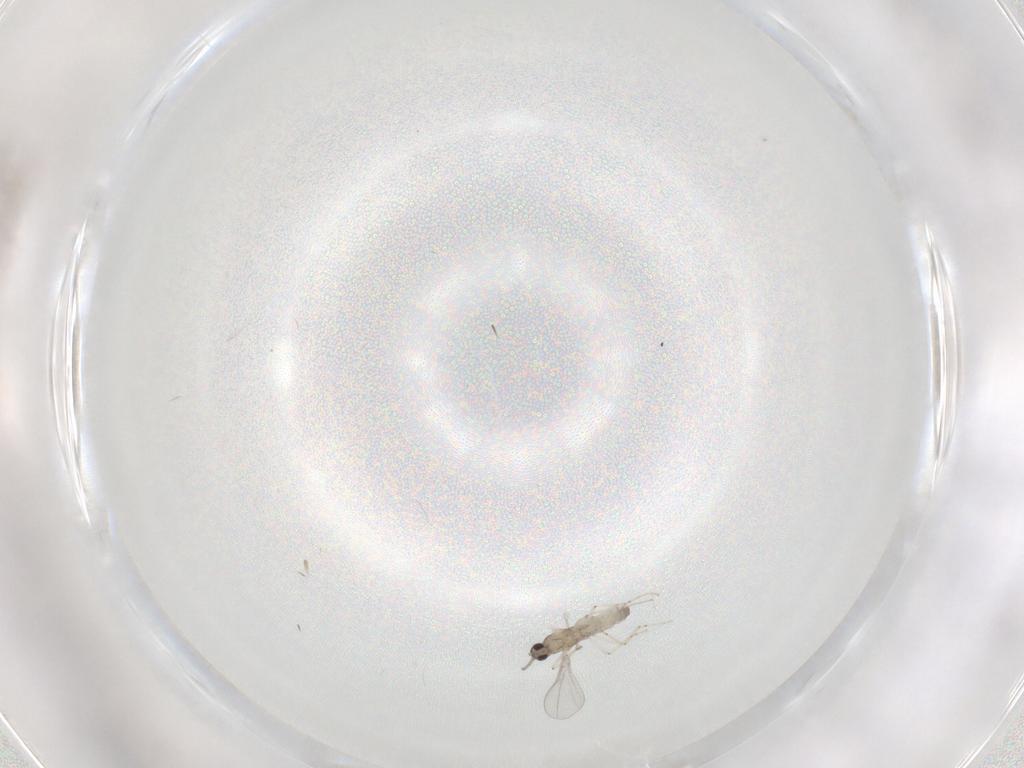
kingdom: Animalia
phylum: Arthropoda
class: Insecta
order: Diptera
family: Cecidomyiidae
